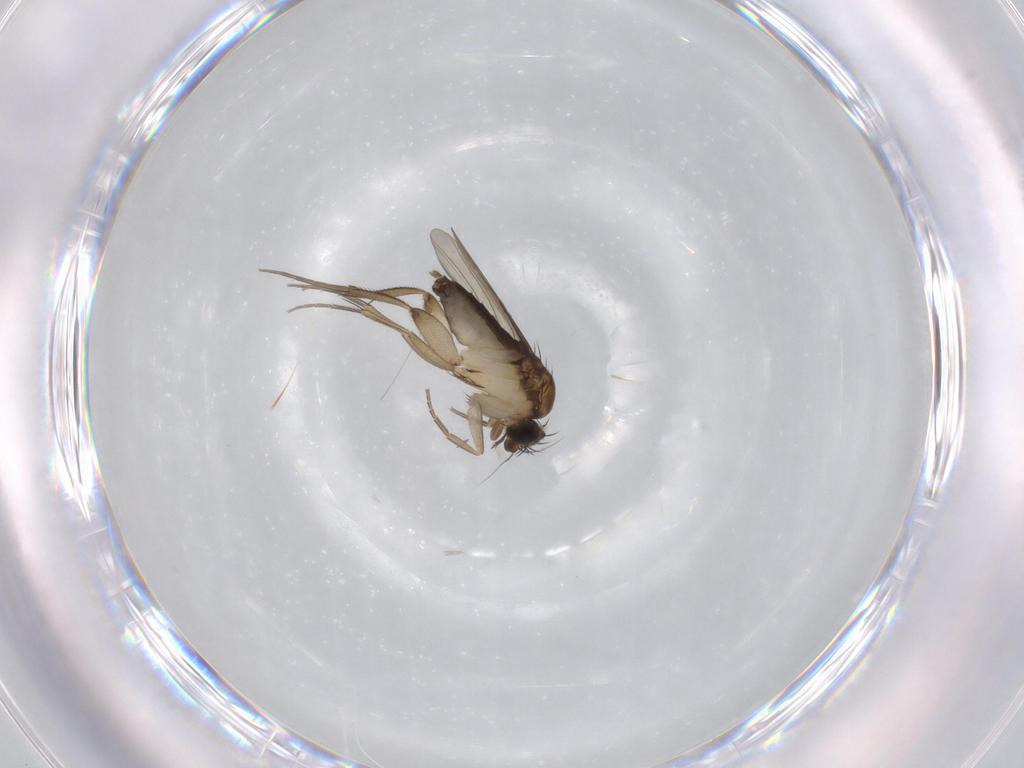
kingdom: Animalia
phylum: Arthropoda
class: Insecta
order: Diptera
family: Phoridae
